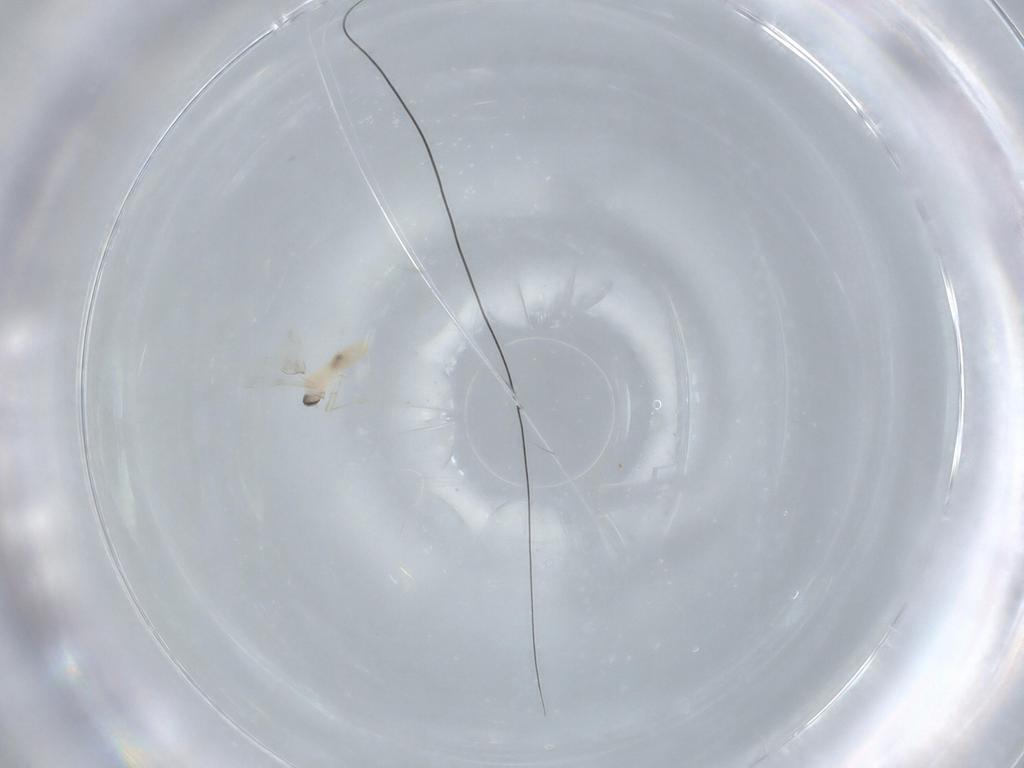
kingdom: Animalia
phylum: Arthropoda
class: Insecta
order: Diptera
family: Cecidomyiidae
